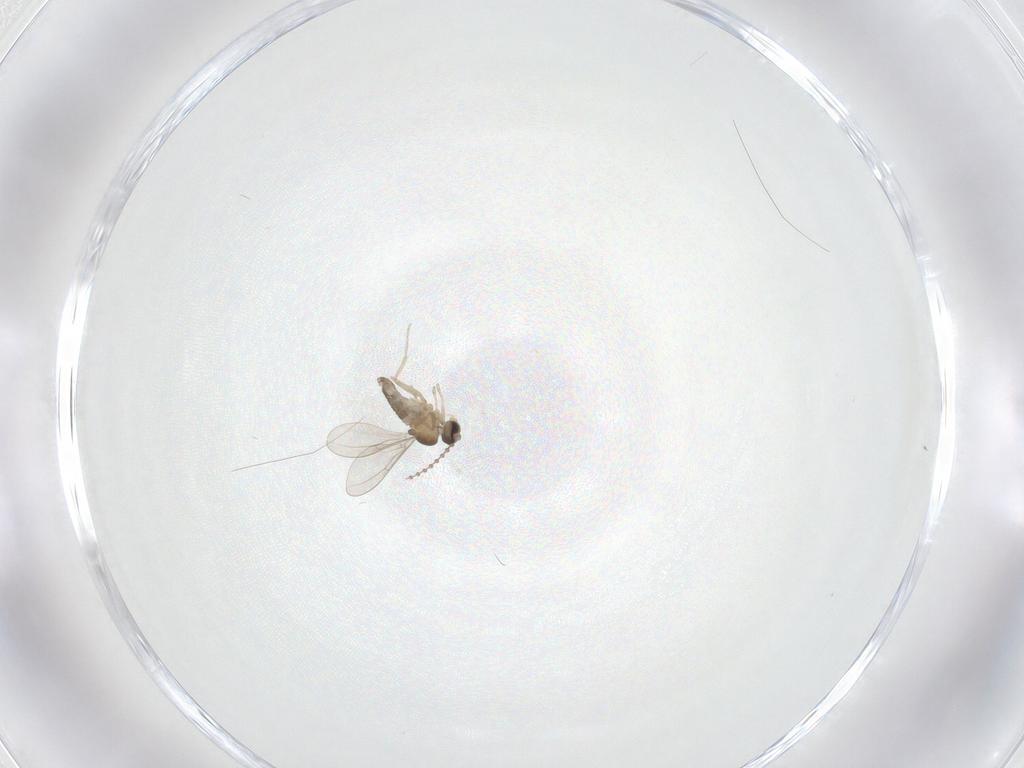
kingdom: Animalia
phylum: Arthropoda
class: Insecta
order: Diptera
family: Cecidomyiidae
